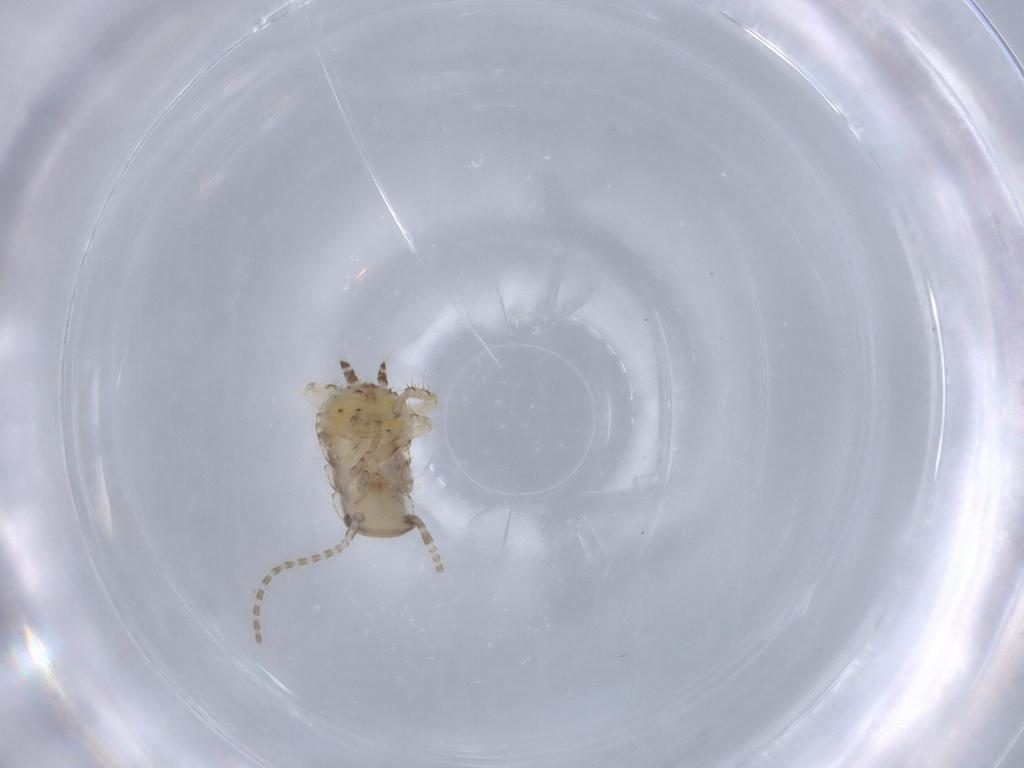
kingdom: Animalia
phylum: Arthropoda
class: Insecta
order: Blattodea
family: Ectobiidae
